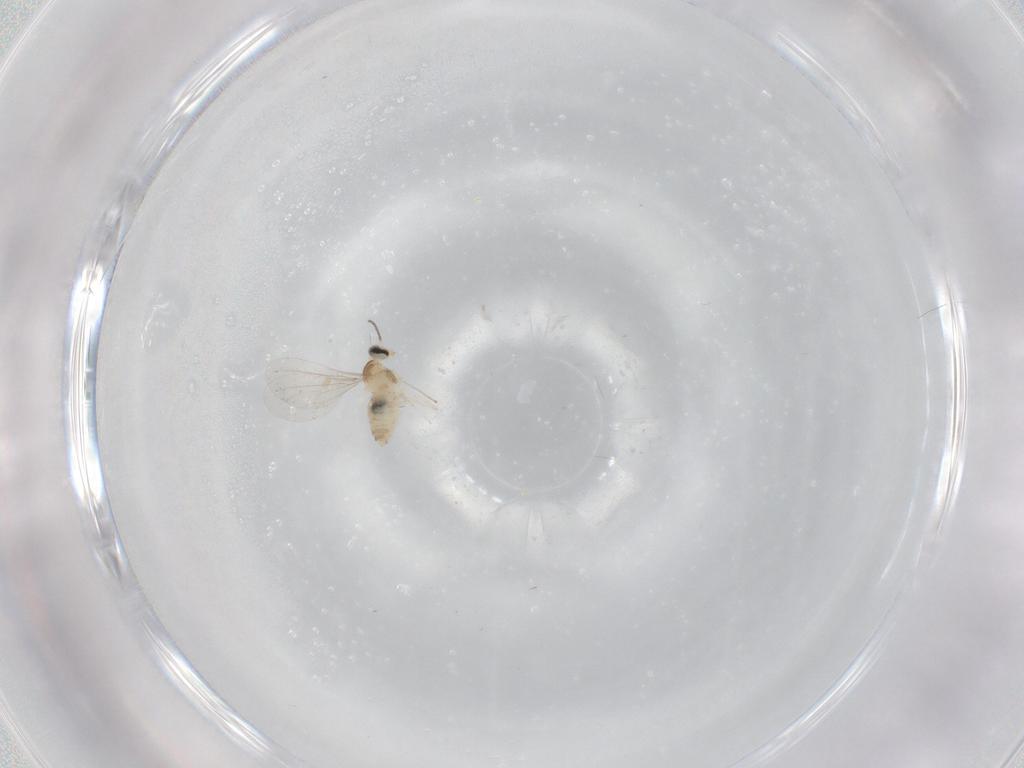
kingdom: Animalia
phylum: Arthropoda
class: Insecta
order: Diptera
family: Cecidomyiidae
